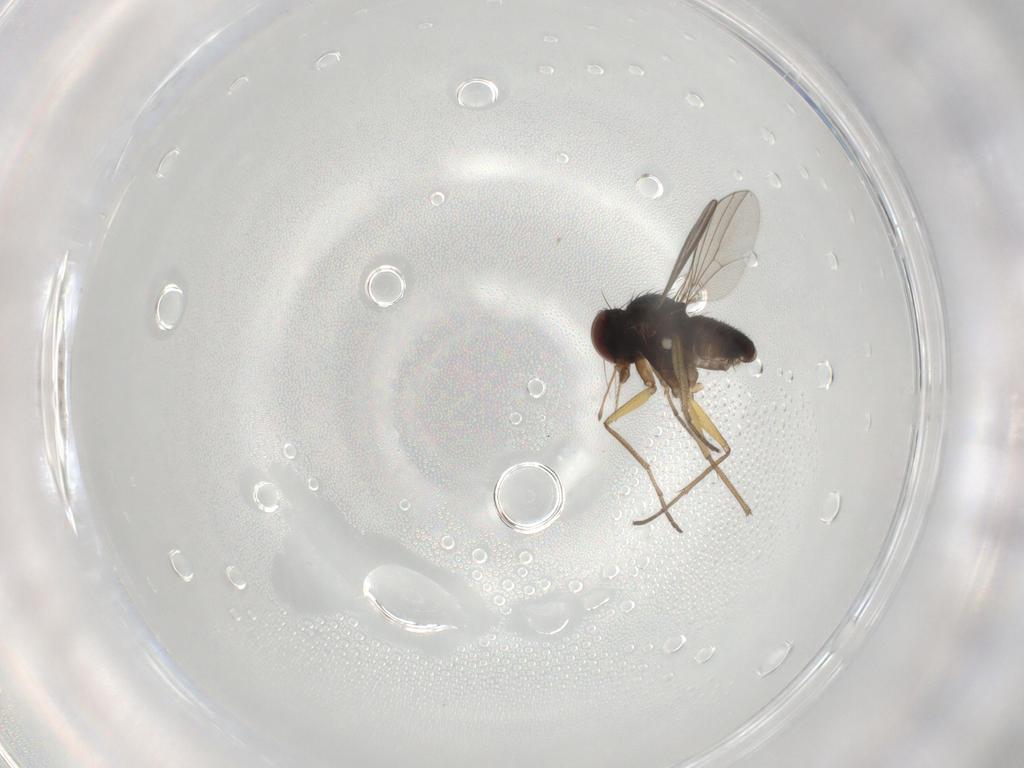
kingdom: Animalia
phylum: Arthropoda
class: Insecta
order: Diptera
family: Dolichopodidae
